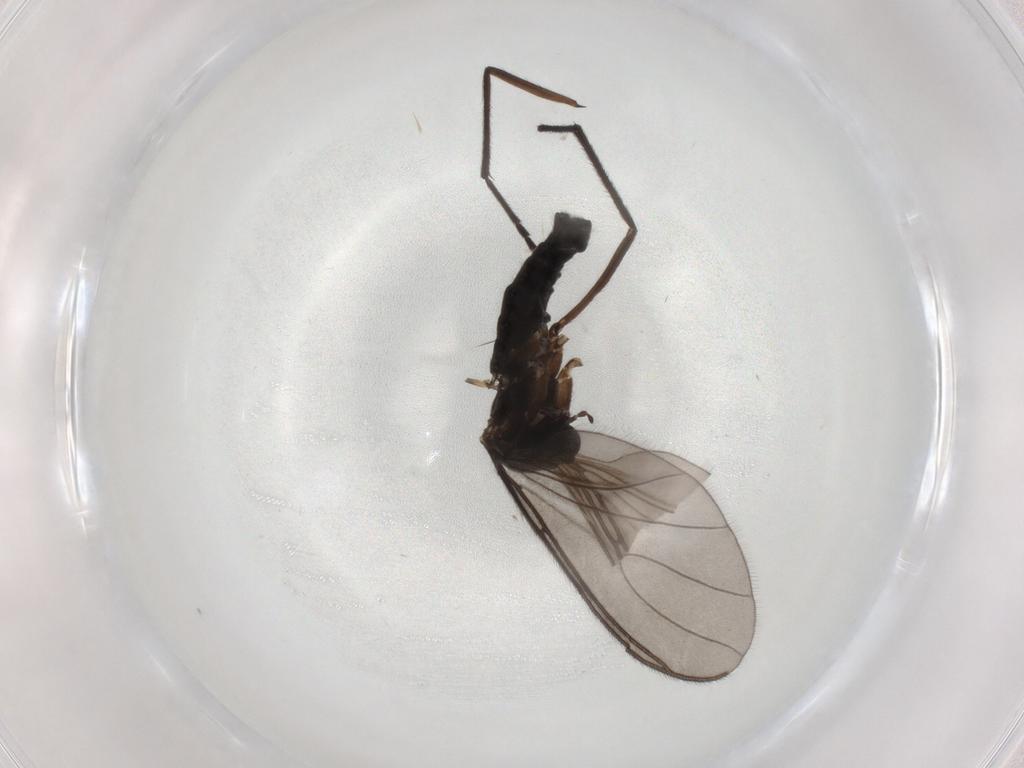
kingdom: Animalia
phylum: Arthropoda
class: Insecta
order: Diptera
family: Sciaridae
